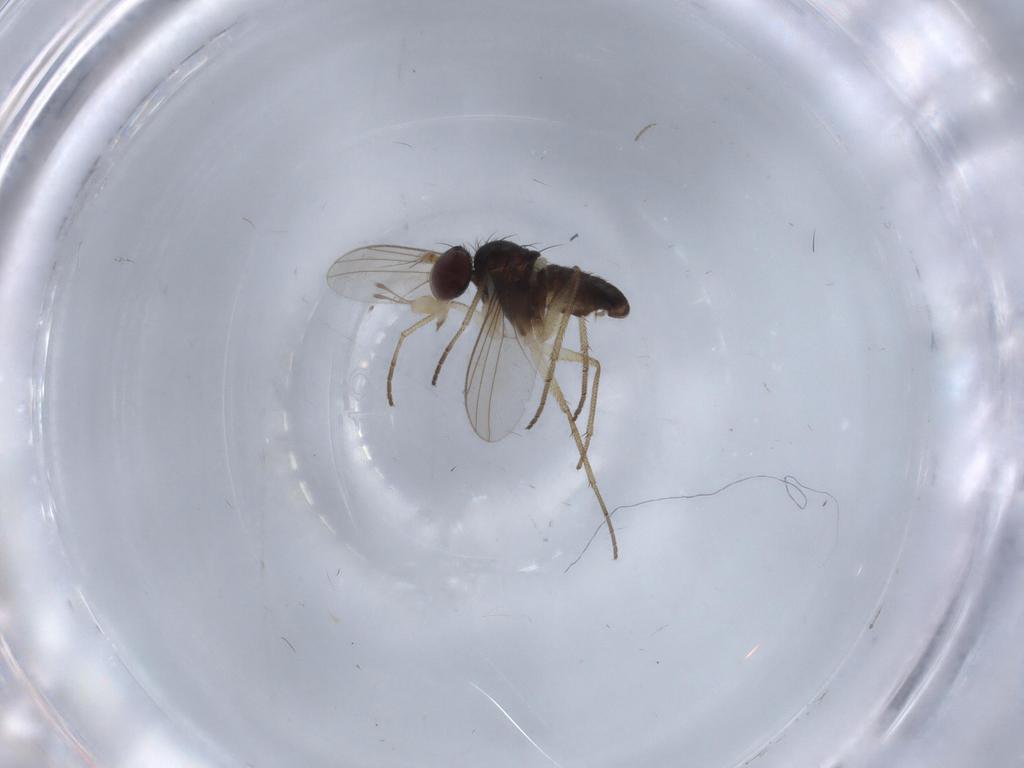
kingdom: Animalia
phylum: Arthropoda
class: Insecta
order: Diptera
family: Dolichopodidae
